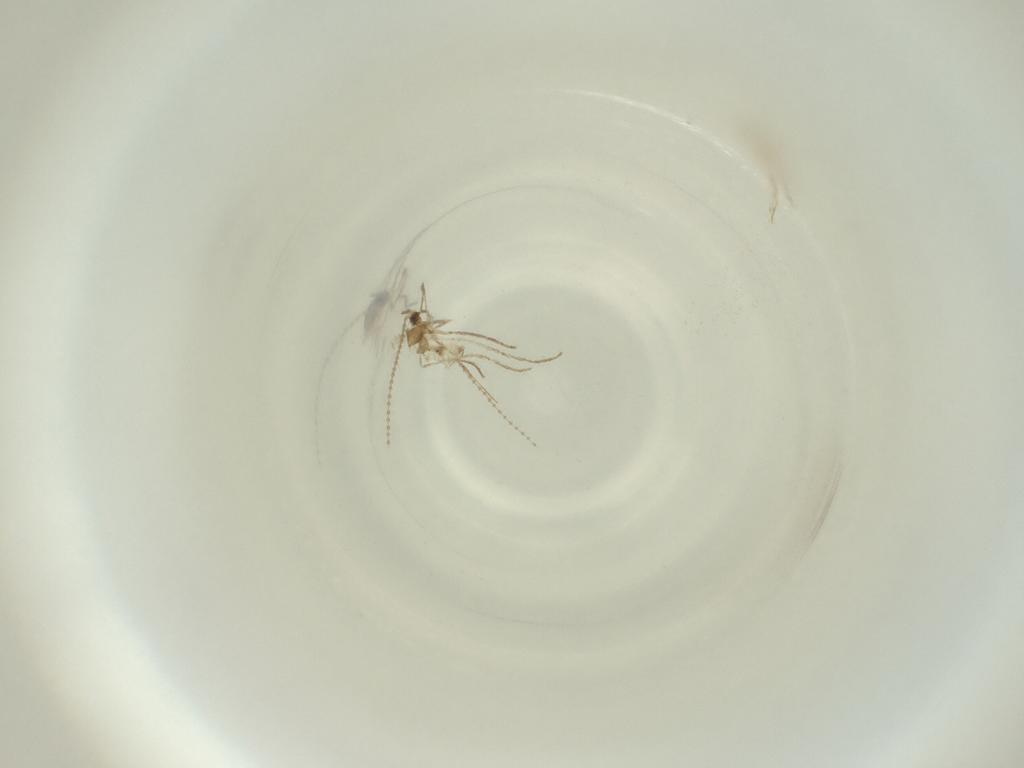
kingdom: Animalia
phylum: Arthropoda
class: Insecta
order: Diptera
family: Cecidomyiidae
